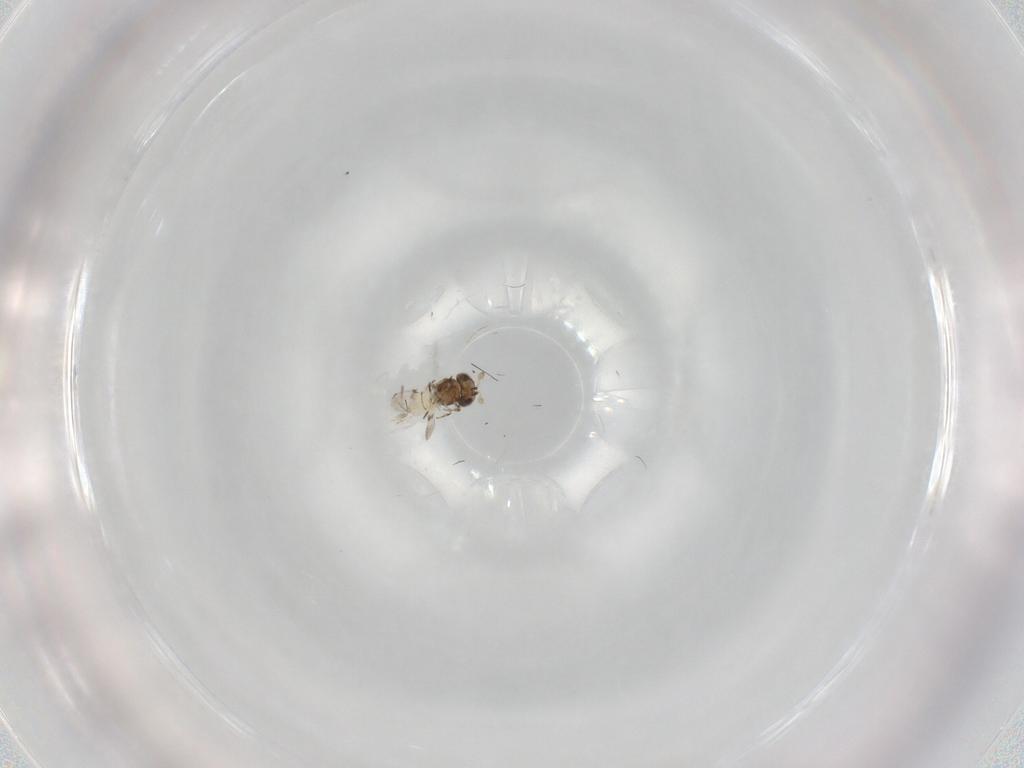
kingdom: Animalia
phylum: Arthropoda
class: Insecta
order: Hymenoptera
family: Scelionidae
